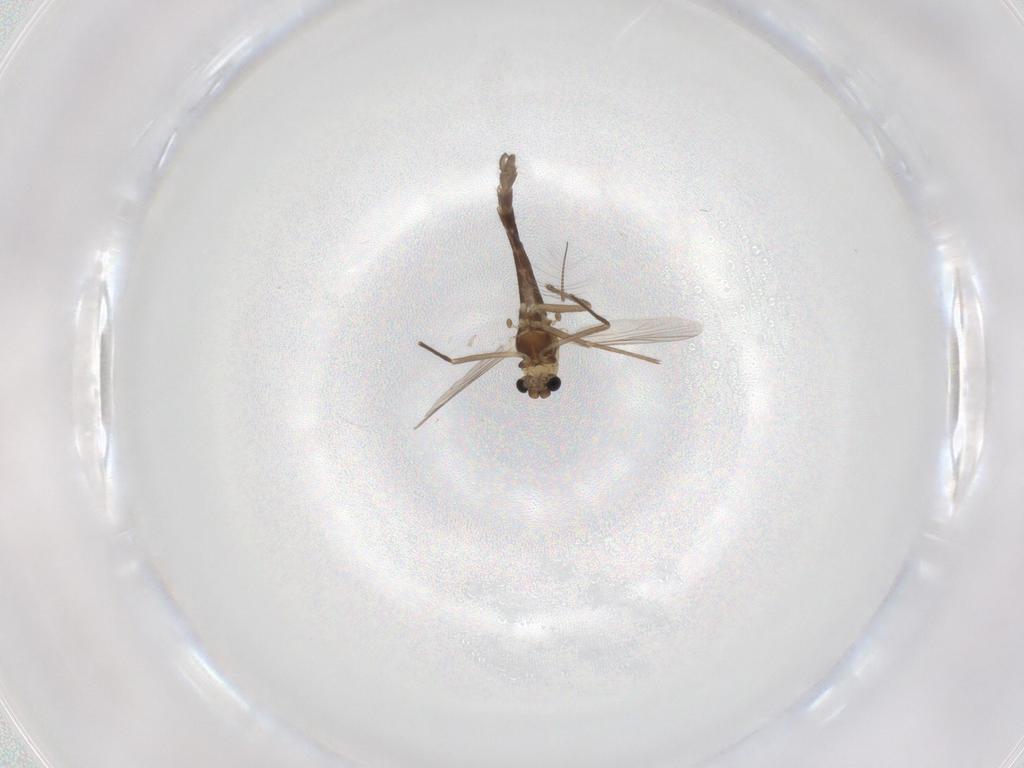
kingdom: Animalia
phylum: Arthropoda
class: Insecta
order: Diptera
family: Chironomidae
